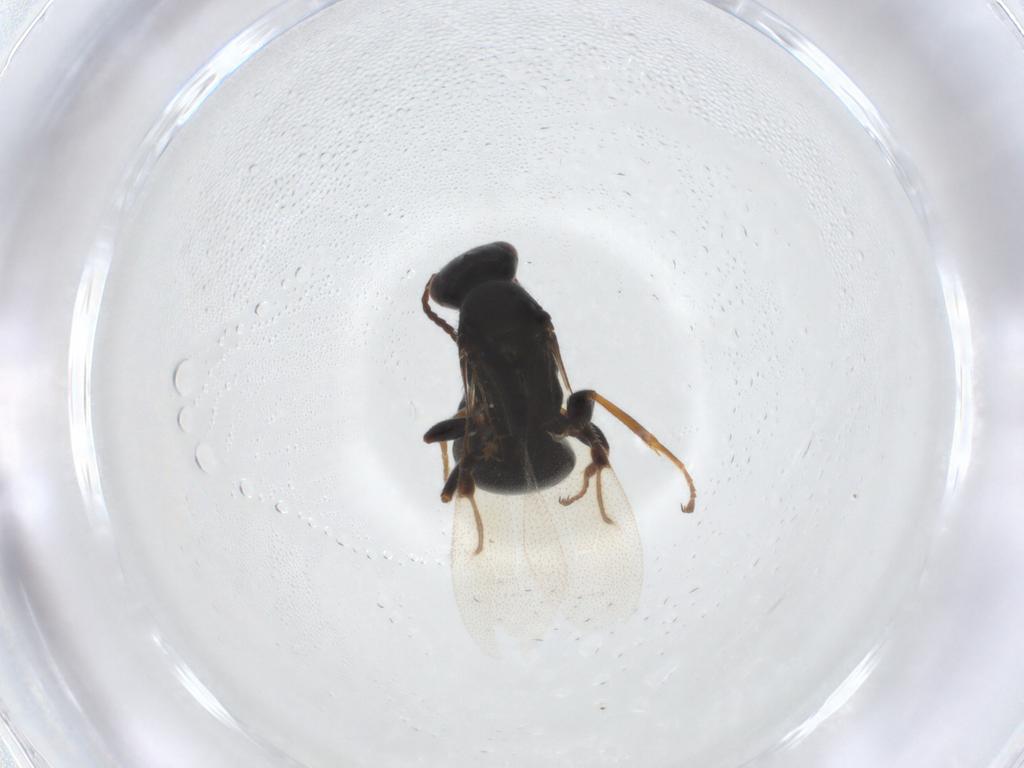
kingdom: Animalia
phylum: Arthropoda
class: Insecta
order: Hymenoptera
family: Bethylidae
